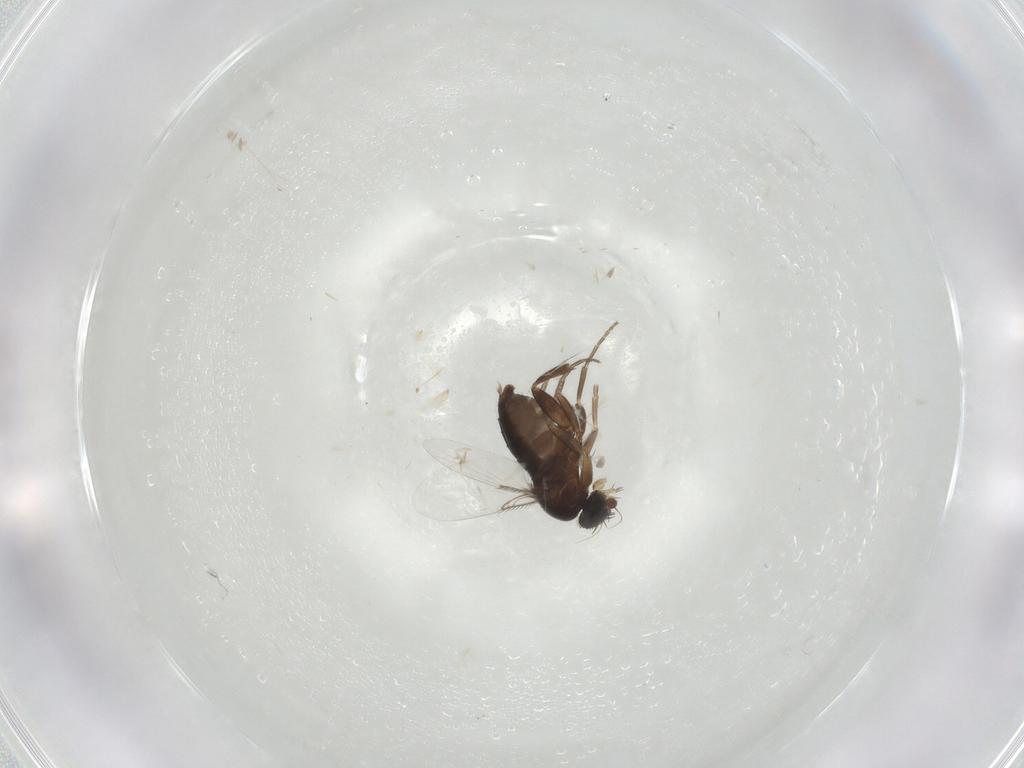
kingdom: Animalia
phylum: Arthropoda
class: Insecta
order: Diptera
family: Phoridae
